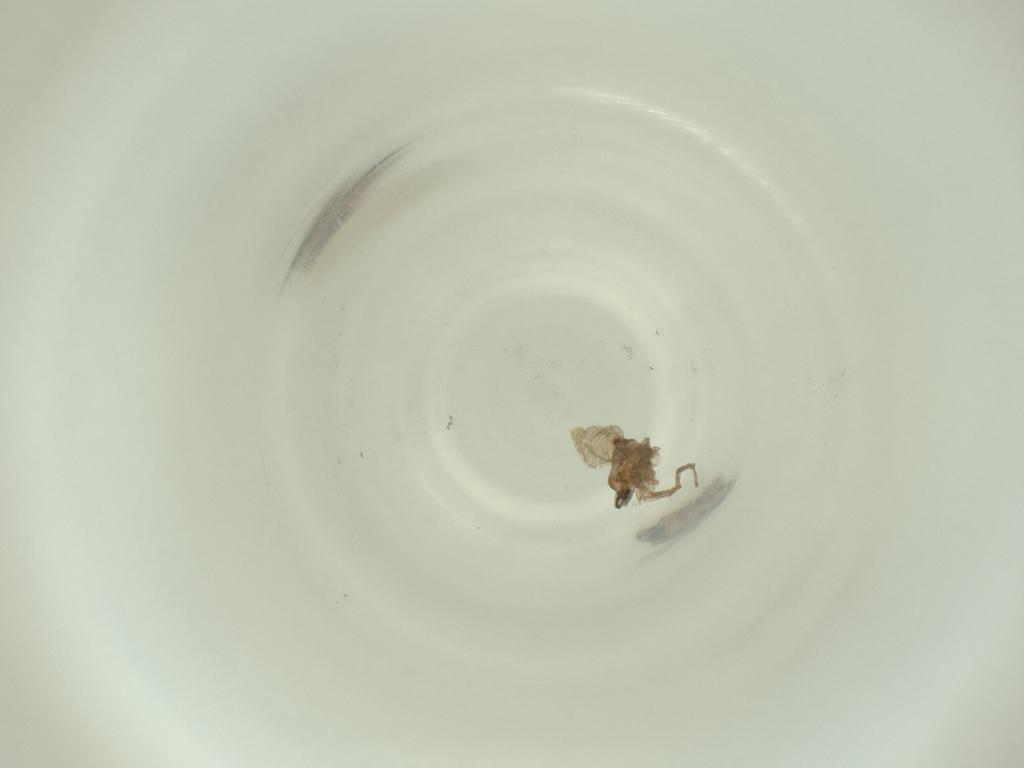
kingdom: Animalia
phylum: Arthropoda
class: Insecta
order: Diptera
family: Cecidomyiidae
